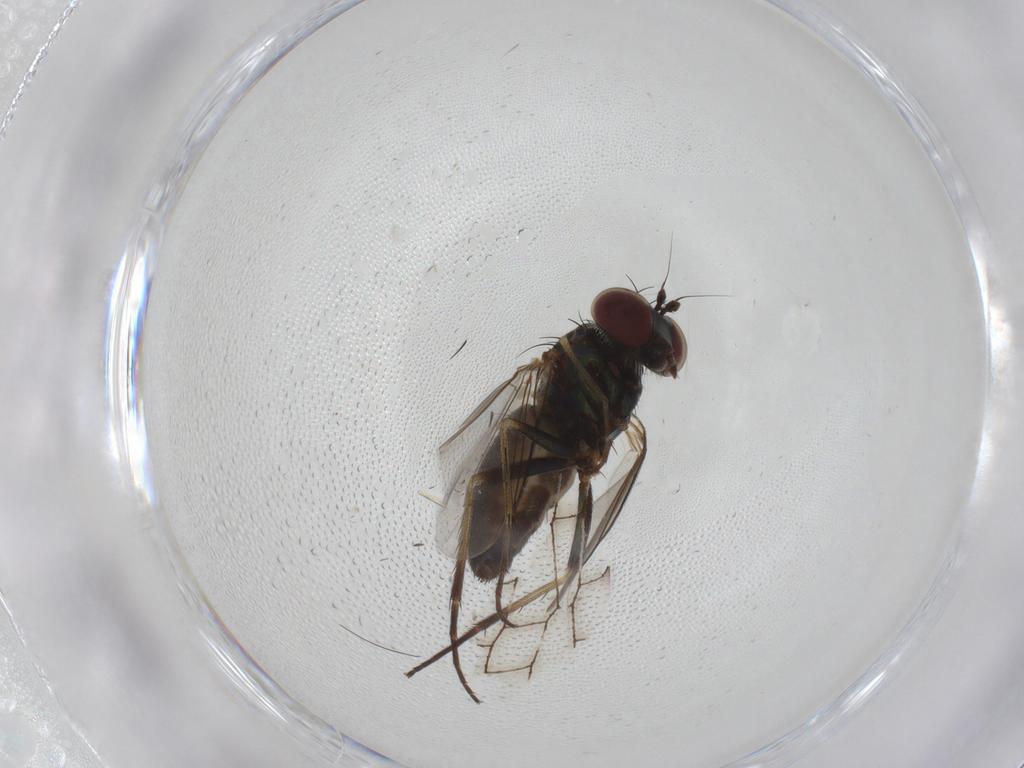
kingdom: Animalia
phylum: Arthropoda
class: Insecta
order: Diptera
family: Dolichopodidae
